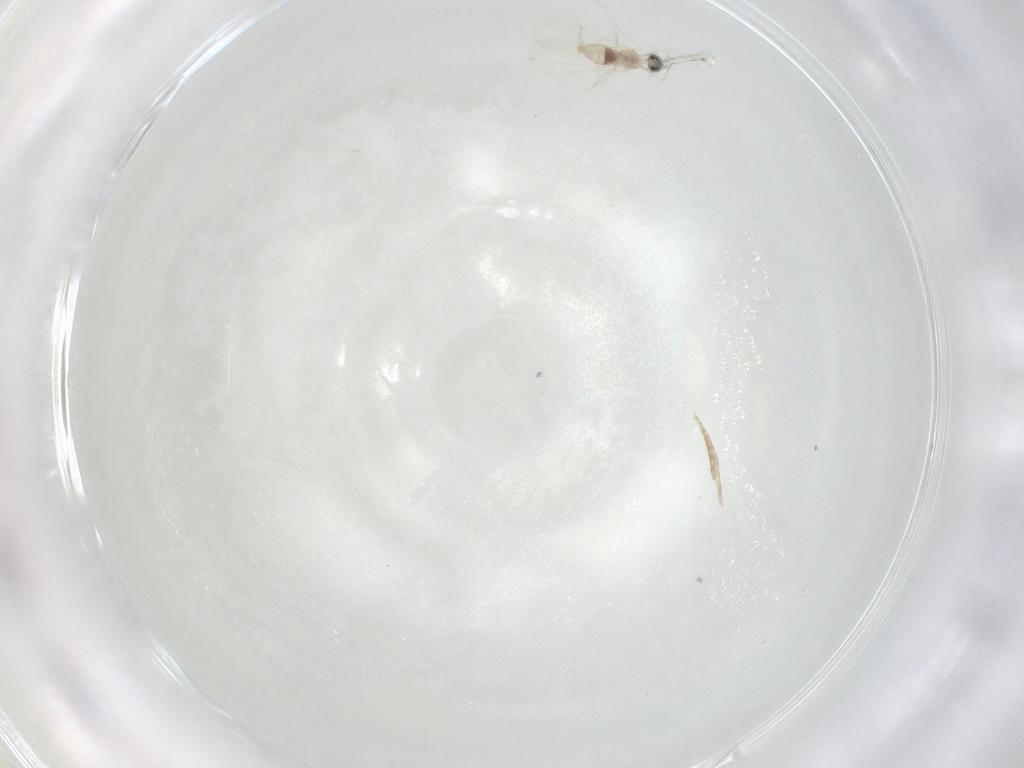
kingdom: Animalia
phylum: Arthropoda
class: Insecta
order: Diptera
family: Cecidomyiidae
